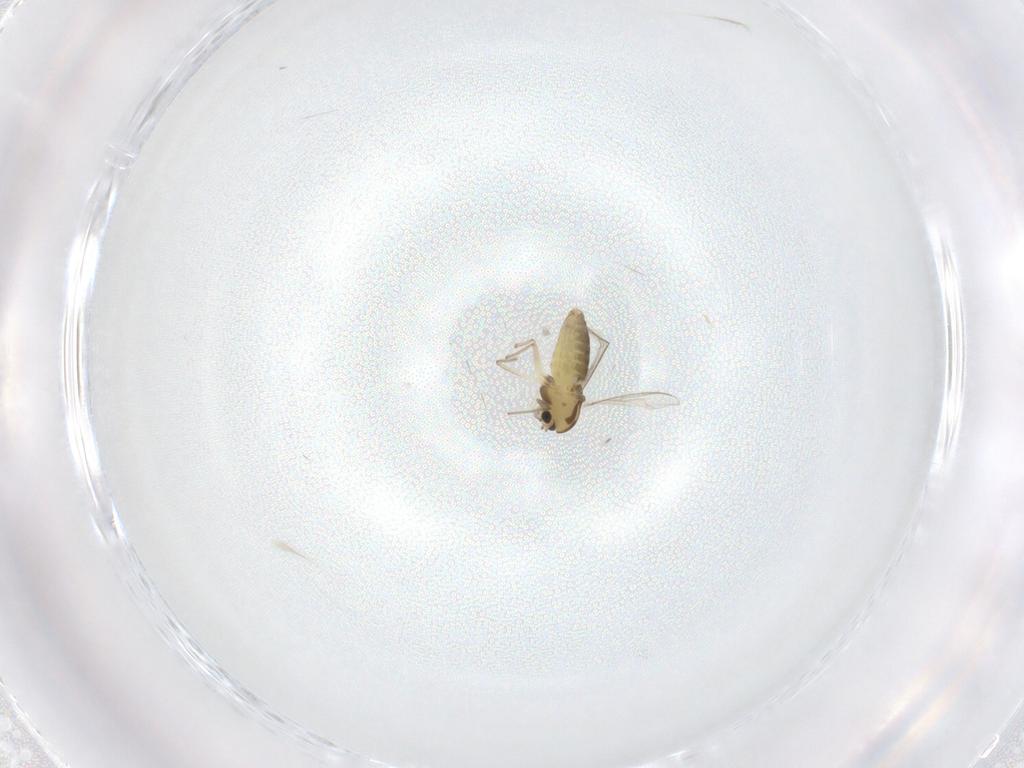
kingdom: Animalia
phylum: Arthropoda
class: Insecta
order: Diptera
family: Chironomidae
